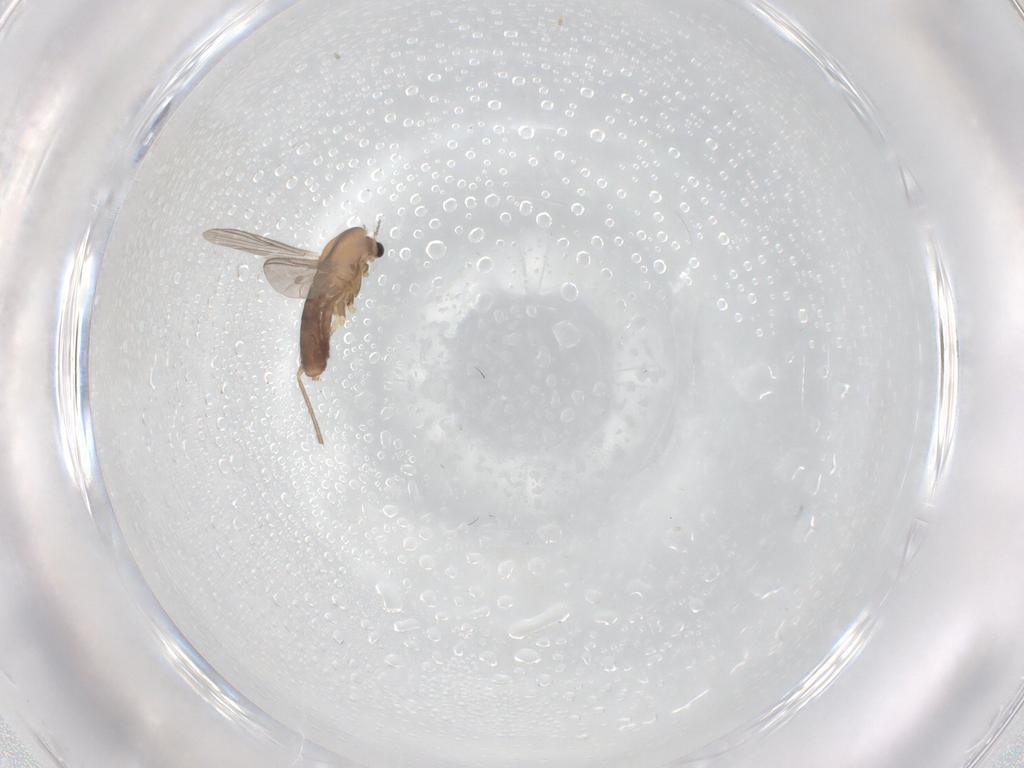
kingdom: Animalia
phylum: Arthropoda
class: Insecta
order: Diptera
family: Chironomidae
